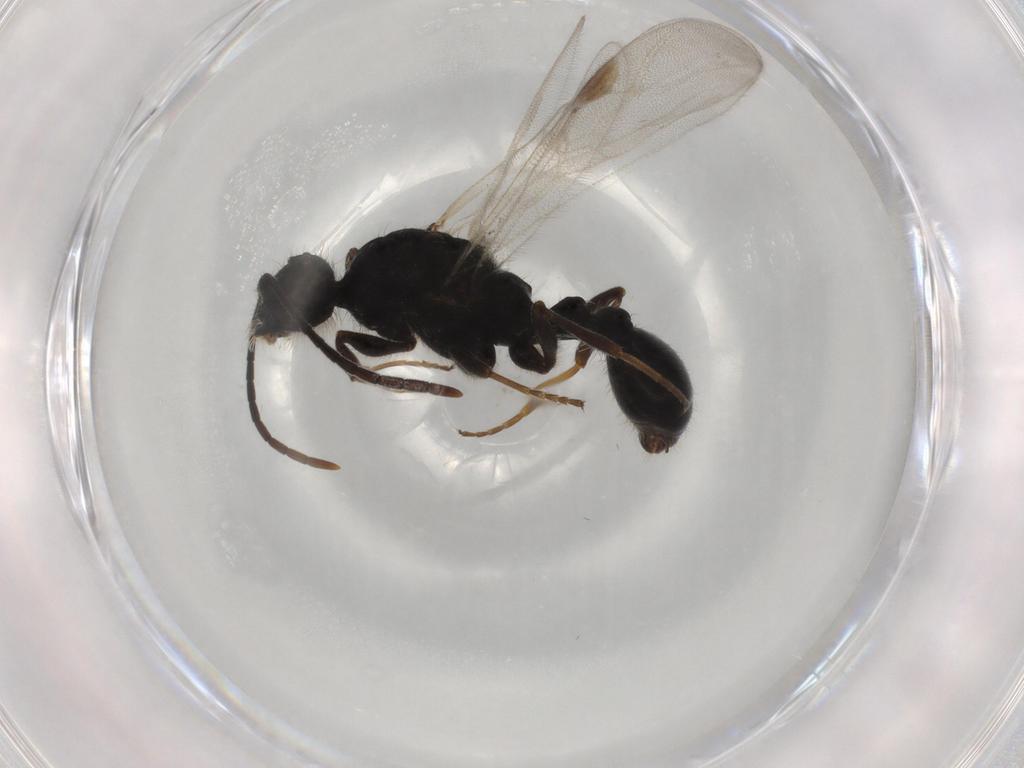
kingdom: Animalia
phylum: Arthropoda
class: Insecta
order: Hymenoptera
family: Formicidae
